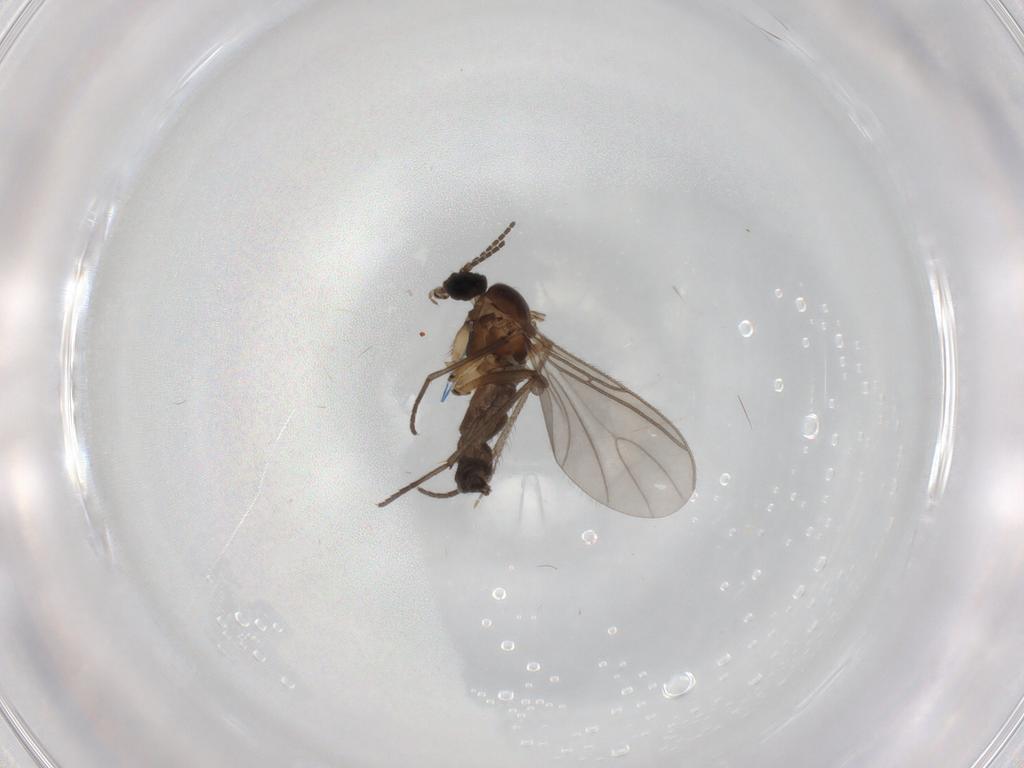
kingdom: Animalia
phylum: Arthropoda
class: Insecta
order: Diptera
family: Sciaridae
